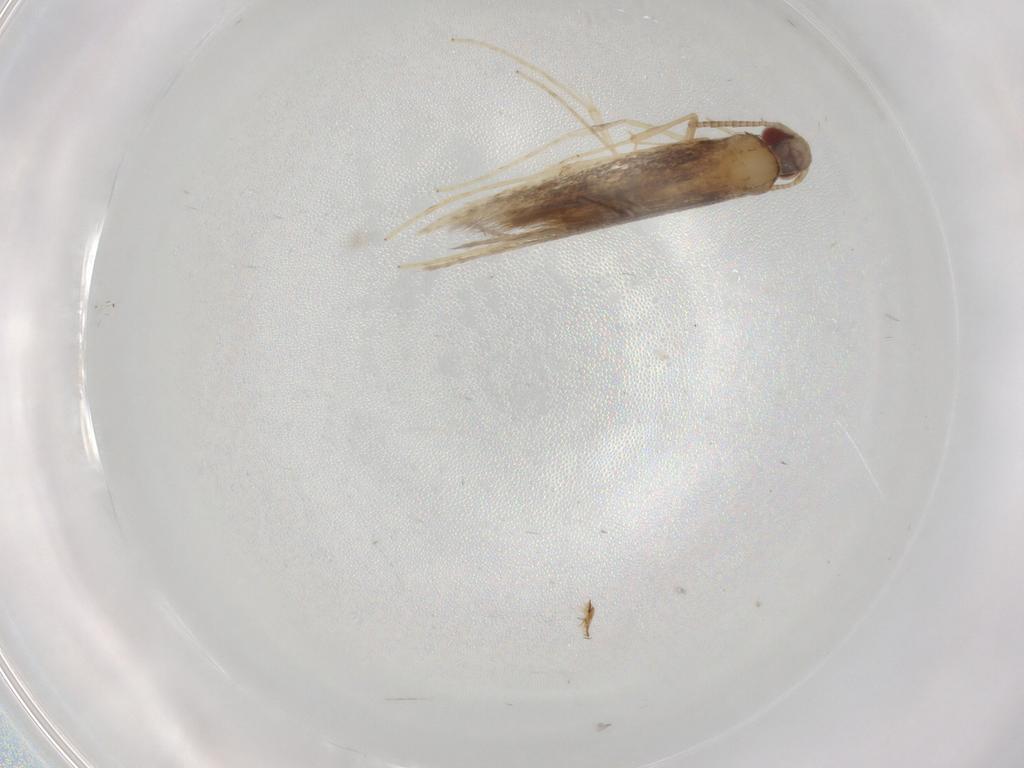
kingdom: Animalia
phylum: Arthropoda
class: Insecta
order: Lepidoptera
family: Gracillariidae
